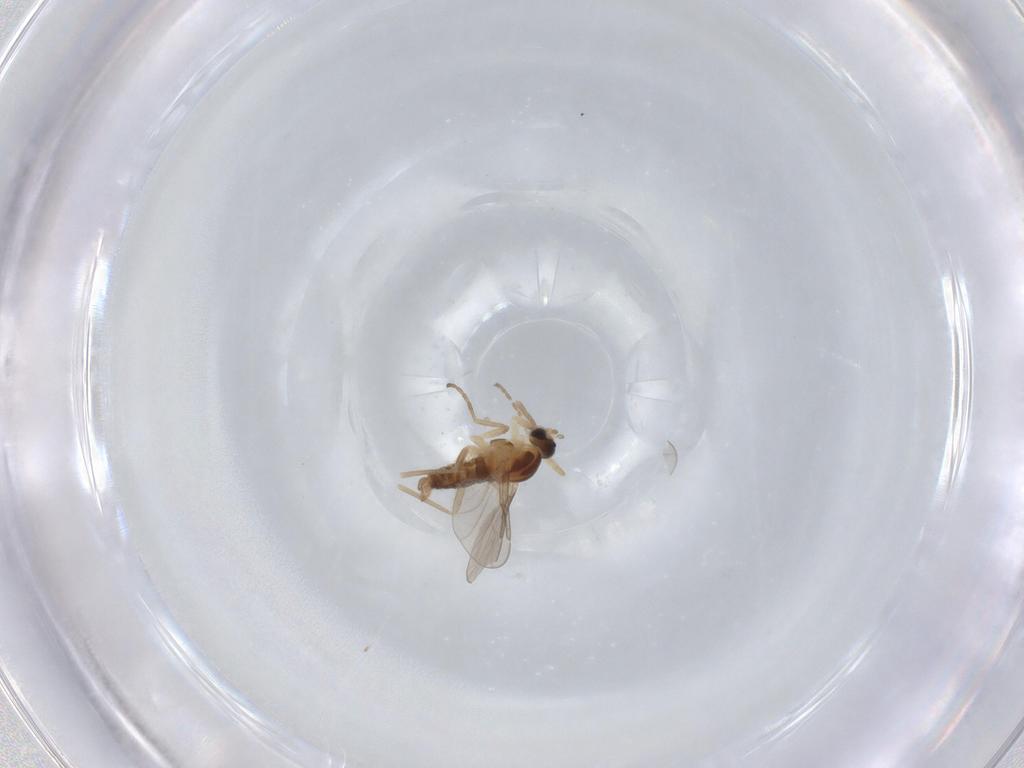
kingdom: Animalia
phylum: Arthropoda
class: Insecta
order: Diptera
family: Mycetophilidae
